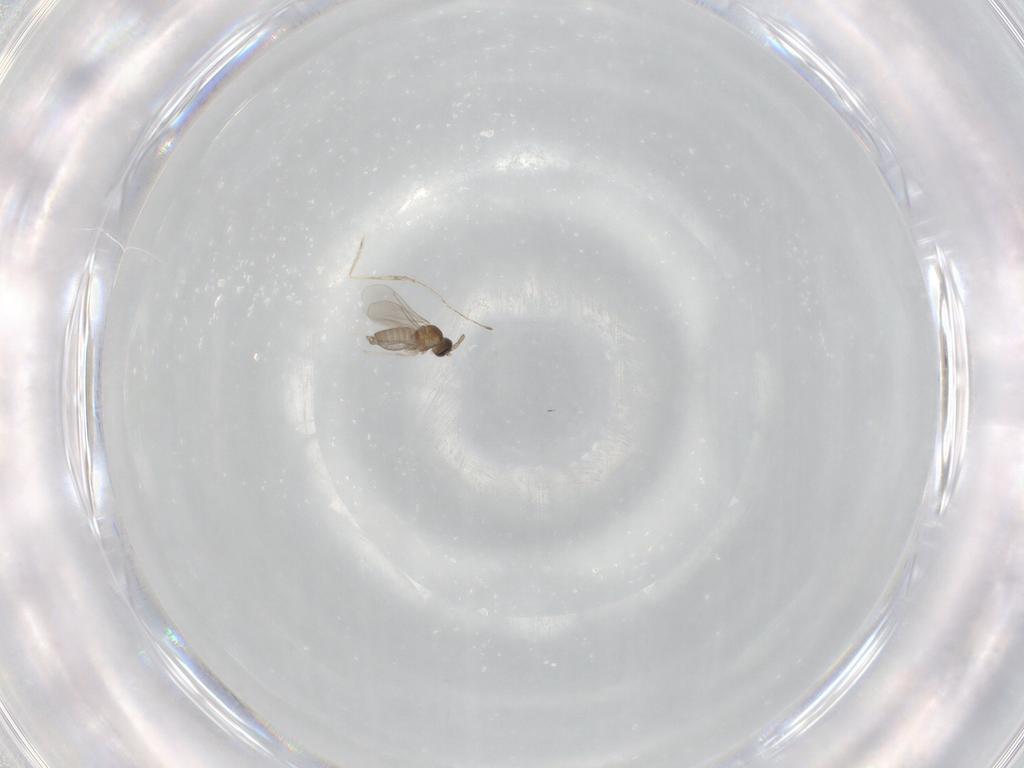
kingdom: Animalia
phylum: Arthropoda
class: Insecta
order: Diptera
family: Cecidomyiidae
